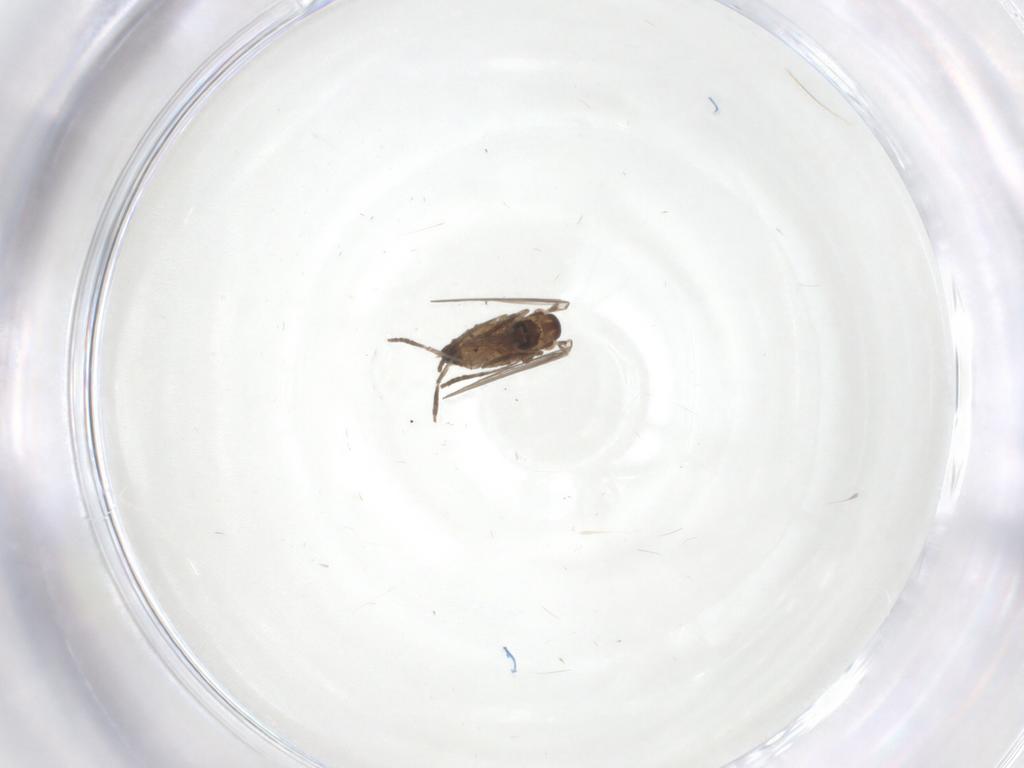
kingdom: Animalia
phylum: Arthropoda
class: Insecta
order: Diptera
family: Psychodidae
